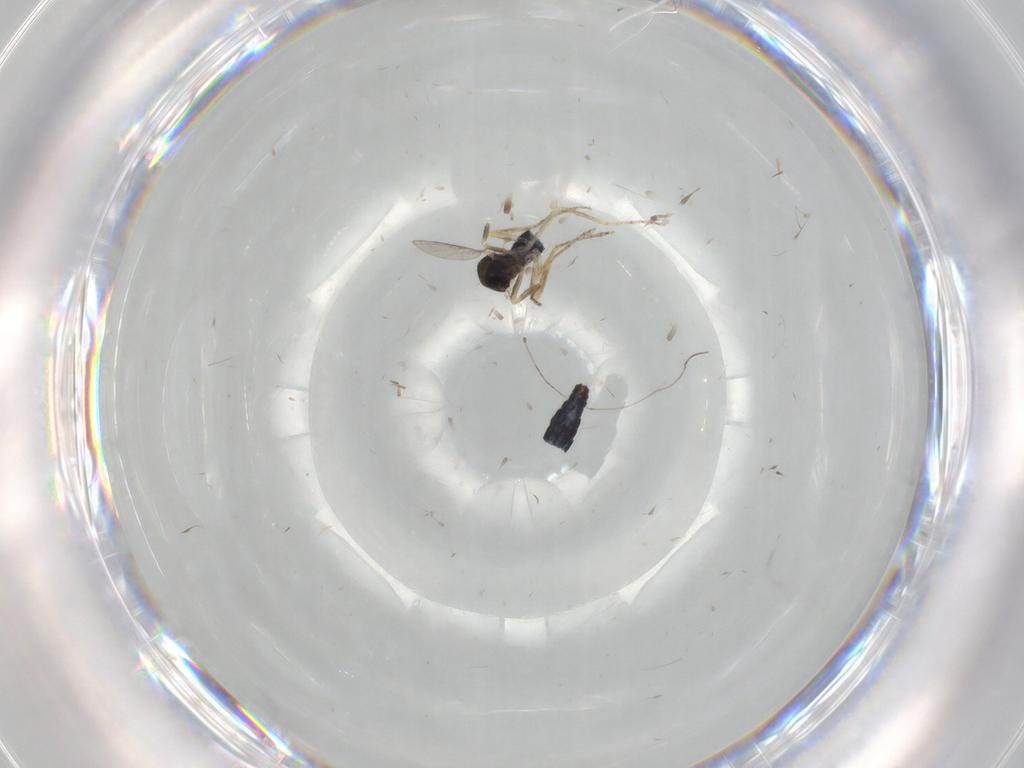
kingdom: Animalia
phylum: Arthropoda
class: Insecta
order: Diptera
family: Ceratopogonidae
